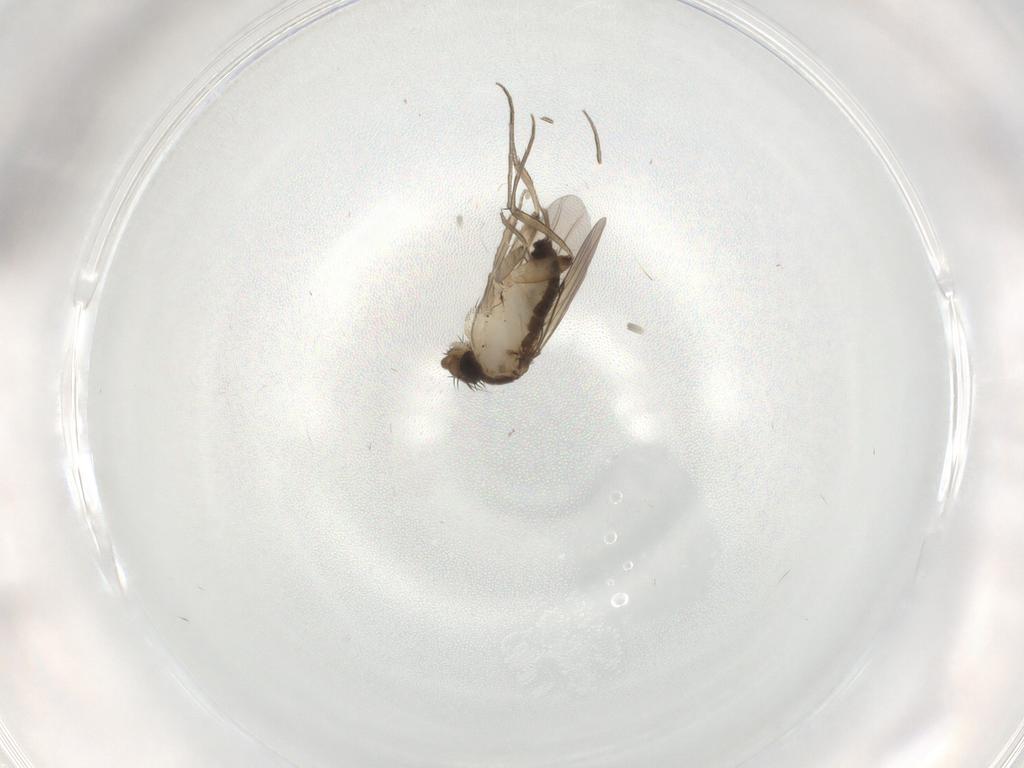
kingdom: Animalia
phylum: Arthropoda
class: Insecta
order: Diptera
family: Phoridae
